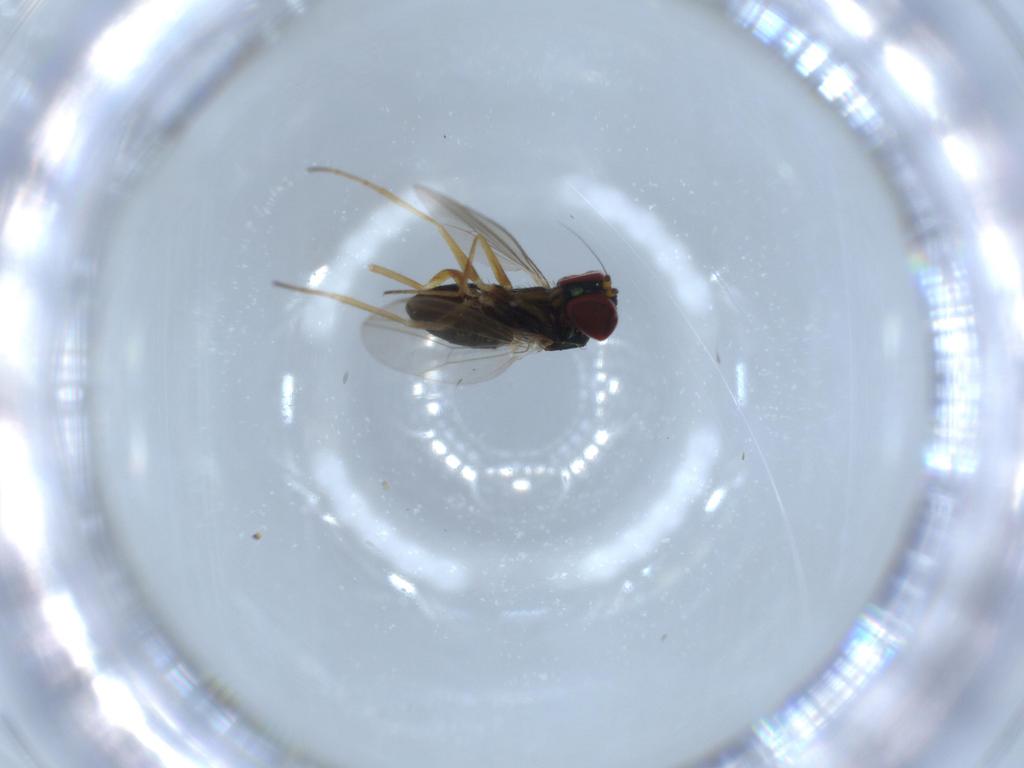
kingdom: Animalia
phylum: Arthropoda
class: Insecta
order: Diptera
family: Dolichopodidae
